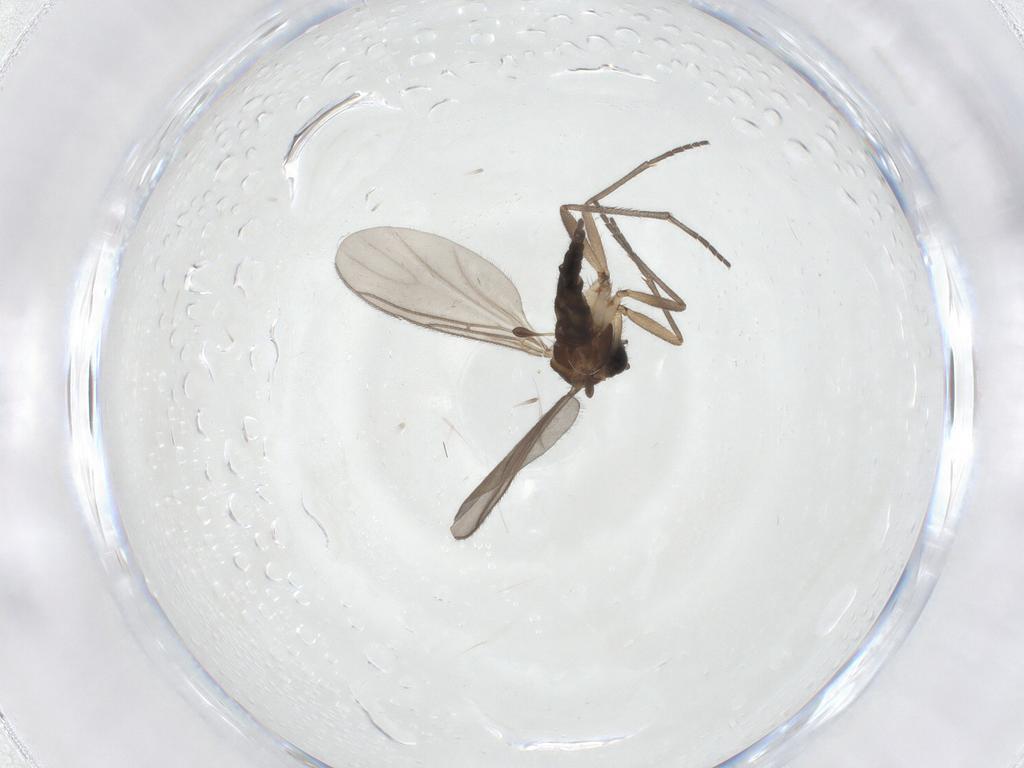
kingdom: Animalia
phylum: Arthropoda
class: Insecta
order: Diptera
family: Sciaridae
